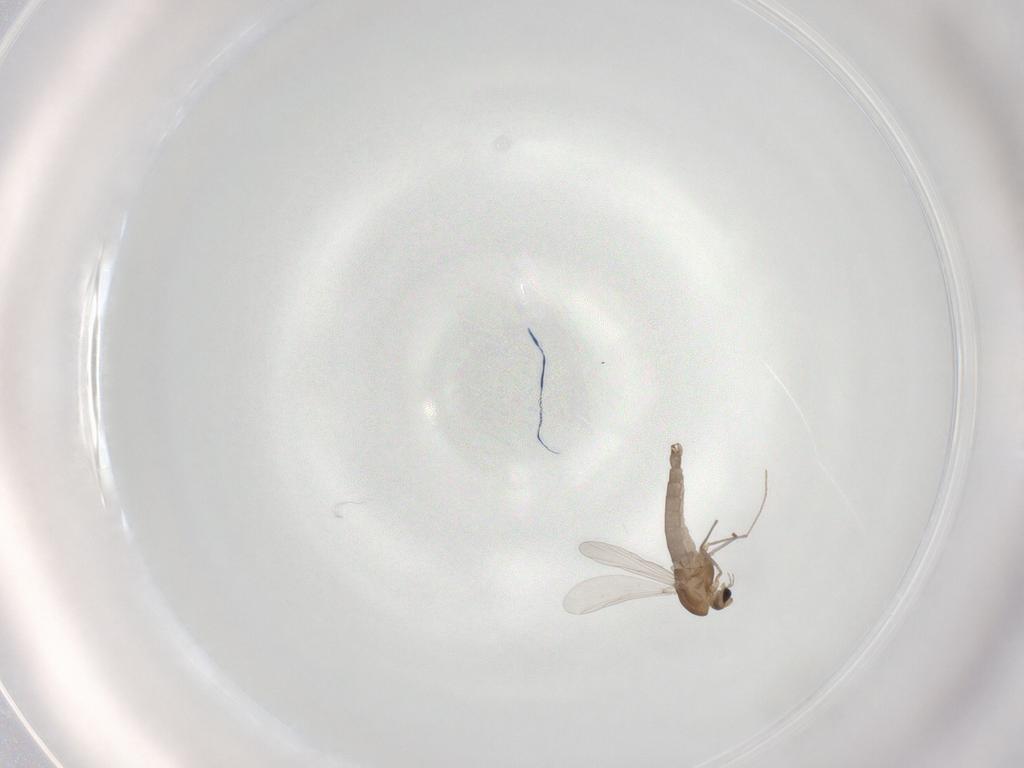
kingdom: Animalia
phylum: Arthropoda
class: Insecta
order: Diptera
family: Chironomidae
